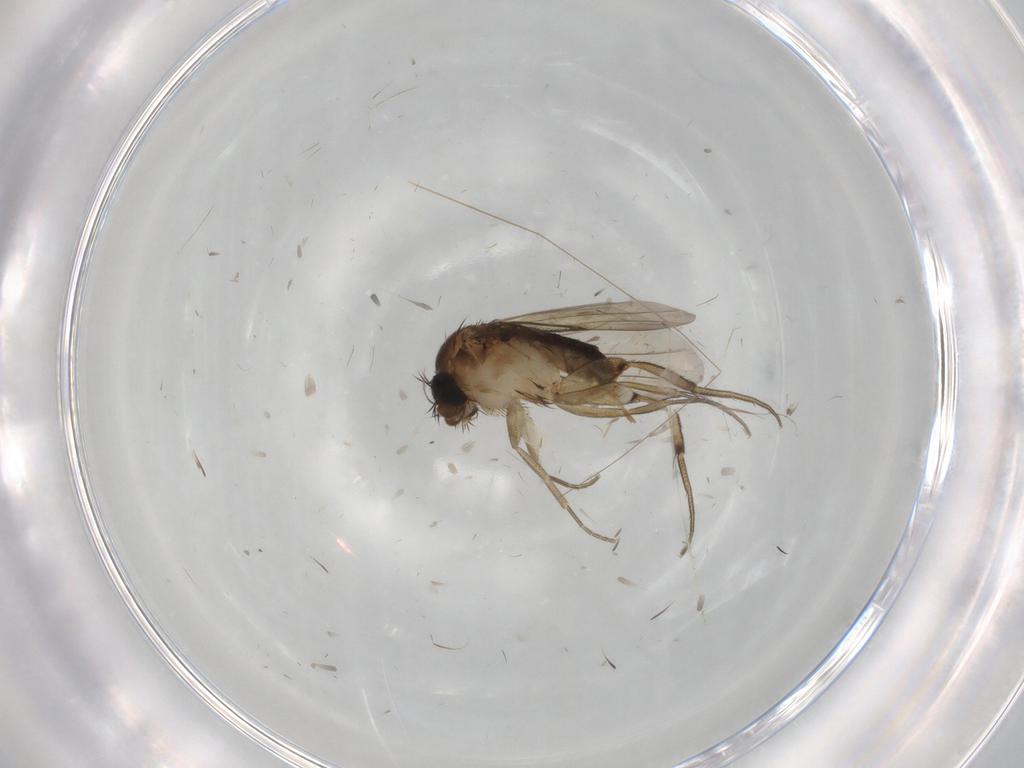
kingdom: Animalia
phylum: Arthropoda
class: Insecta
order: Diptera
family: Phoridae
